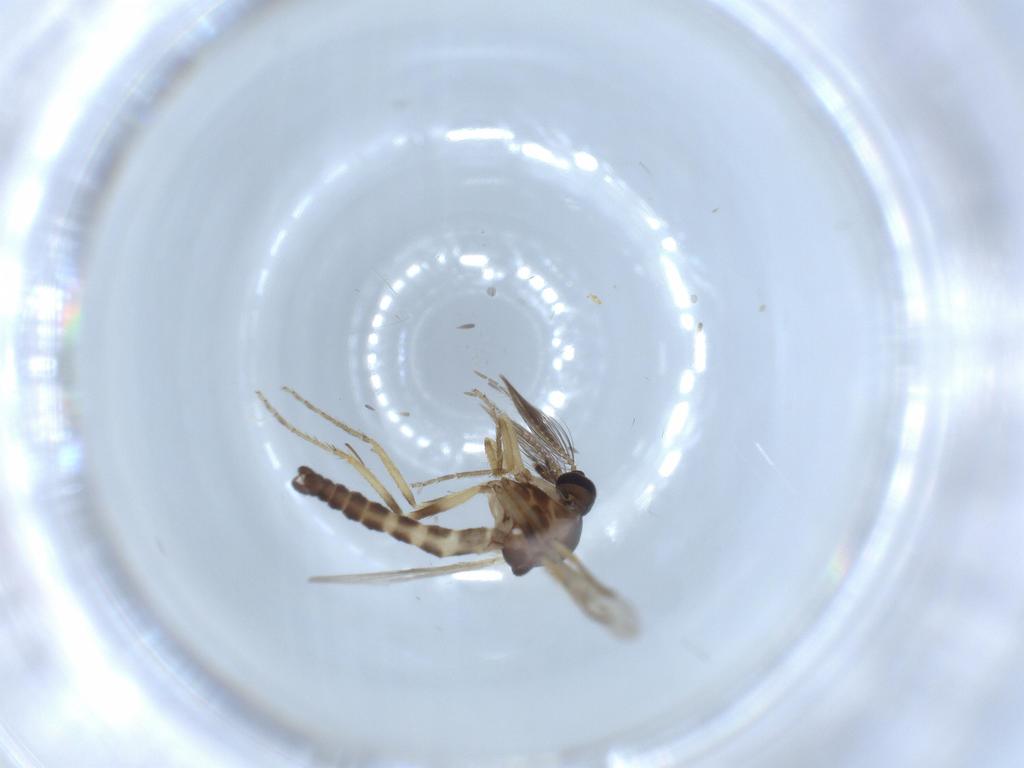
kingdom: Animalia
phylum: Arthropoda
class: Insecta
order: Diptera
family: Ceratopogonidae
